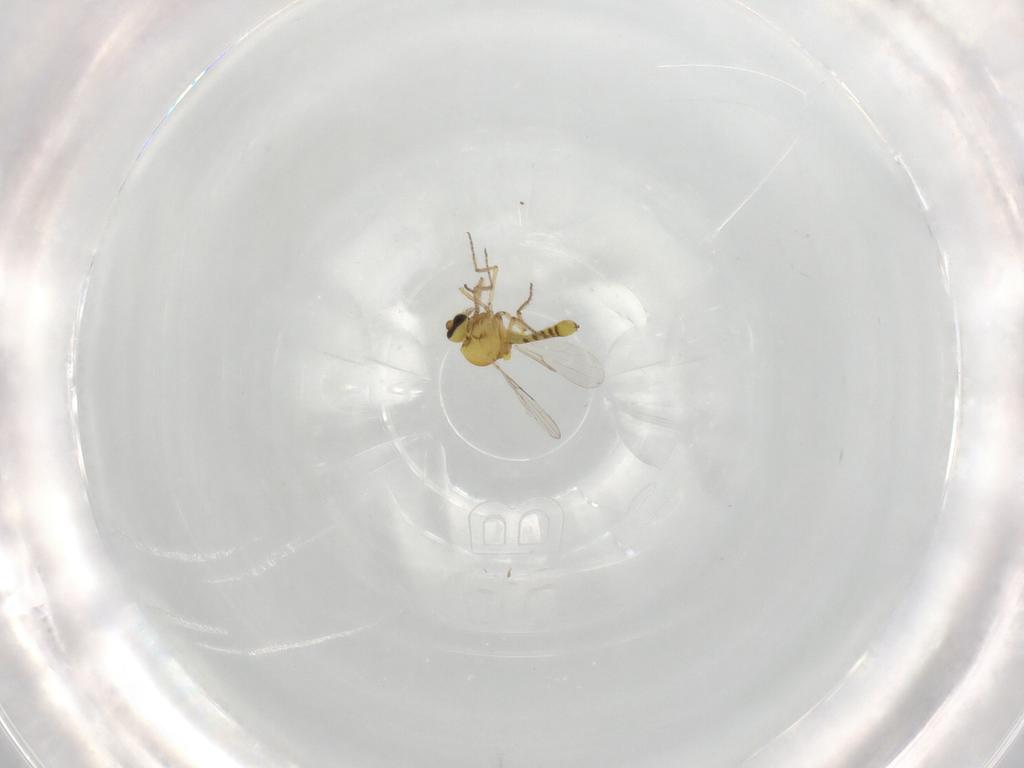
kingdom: Animalia
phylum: Arthropoda
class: Insecta
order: Diptera
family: Ceratopogonidae
